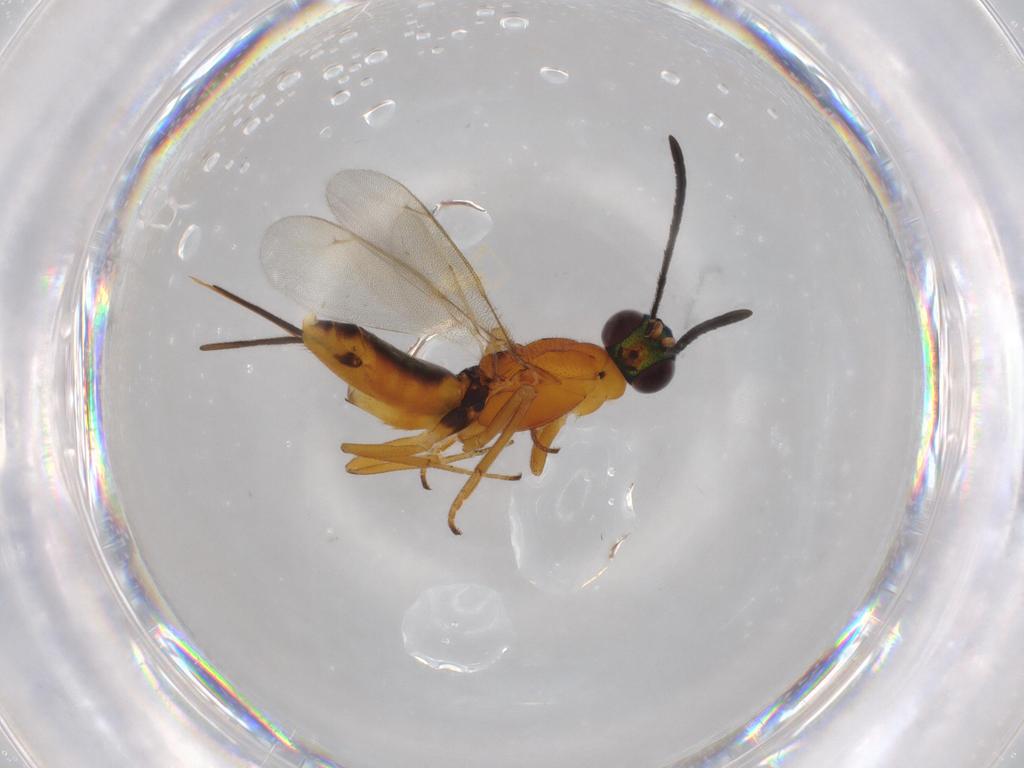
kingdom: Animalia
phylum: Arthropoda
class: Insecta
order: Hymenoptera
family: Eupelmidae
